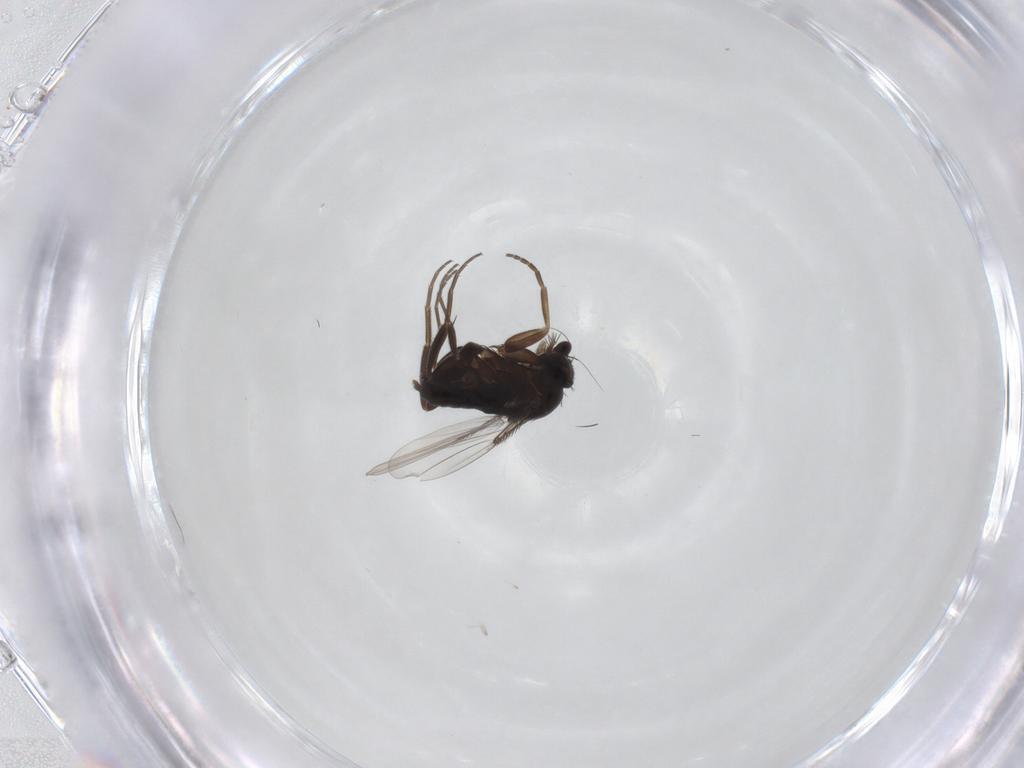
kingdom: Animalia
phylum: Arthropoda
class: Insecta
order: Diptera
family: Phoridae
